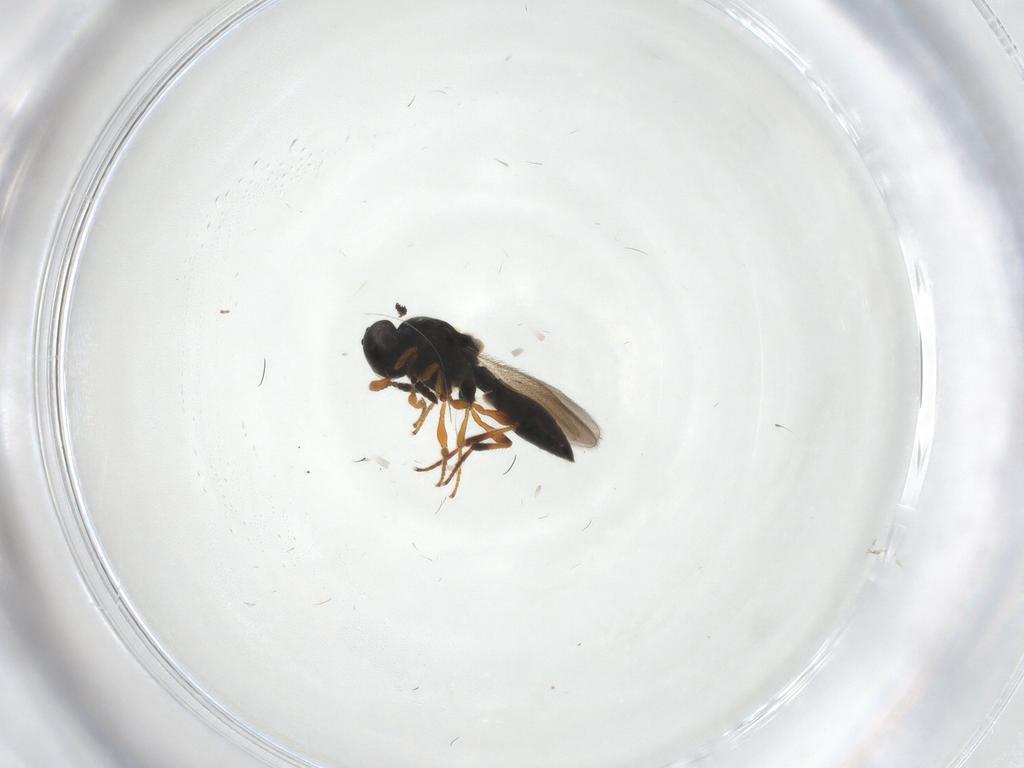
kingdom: Animalia
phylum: Arthropoda
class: Insecta
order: Hymenoptera
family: Platygastridae
